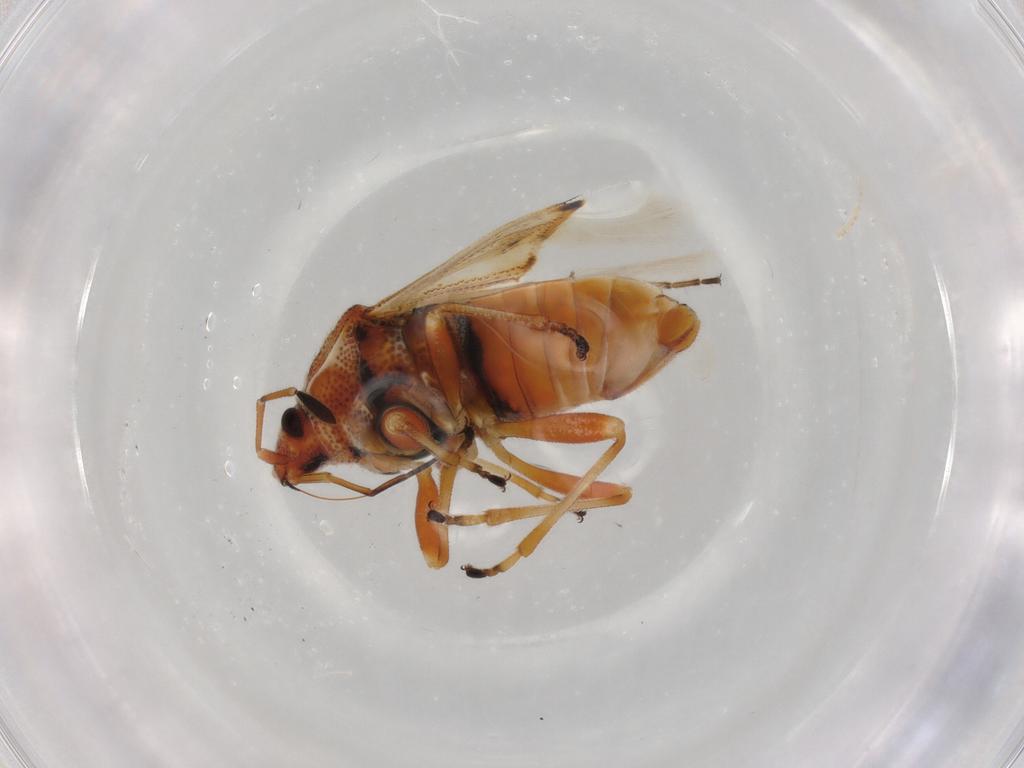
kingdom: Animalia
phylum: Arthropoda
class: Insecta
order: Hemiptera
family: Lygaeidae
